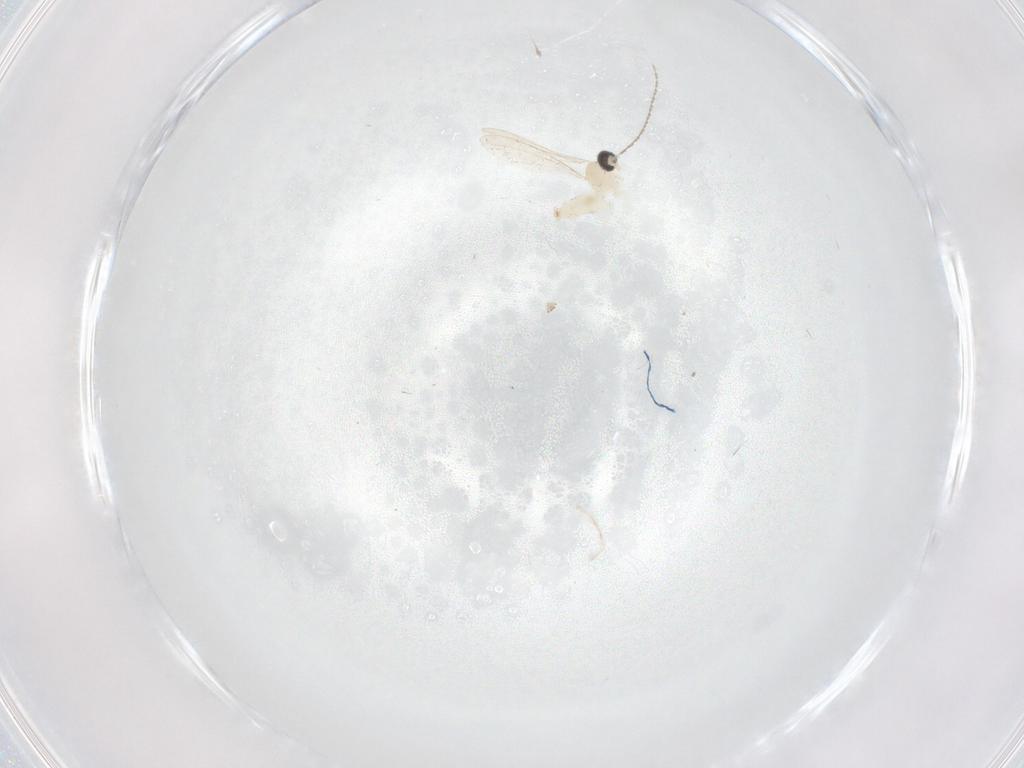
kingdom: Animalia
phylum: Arthropoda
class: Insecta
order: Diptera
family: Cecidomyiidae
